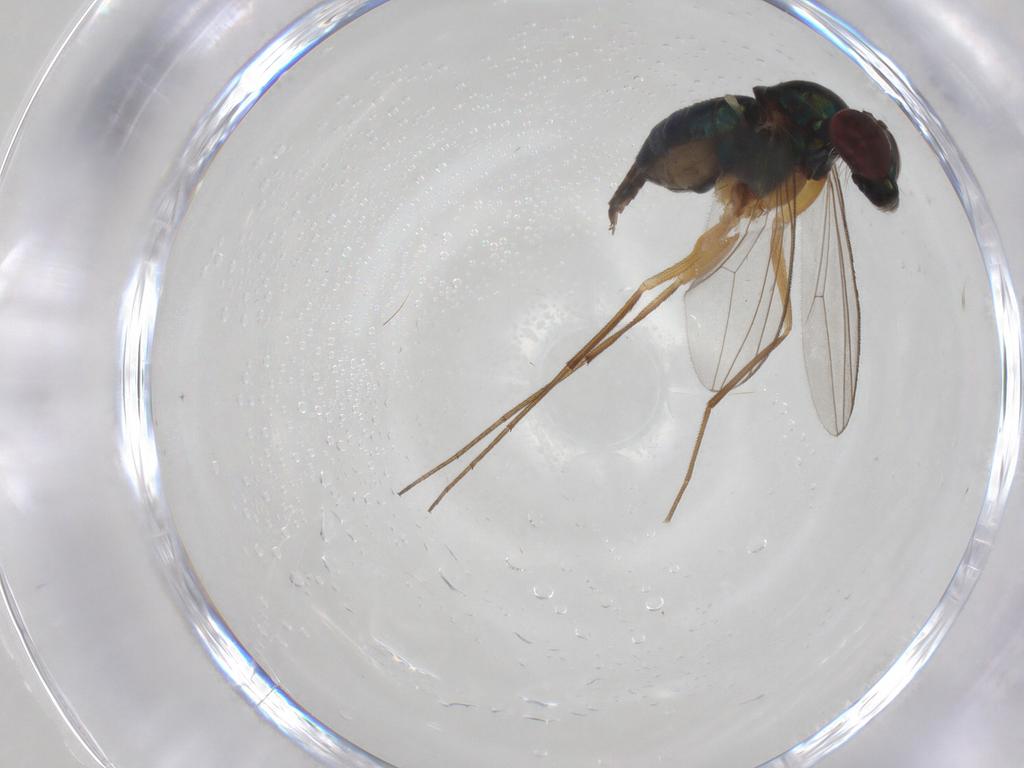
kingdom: Animalia
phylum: Arthropoda
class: Insecta
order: Diptera
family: Dolichopodidae
